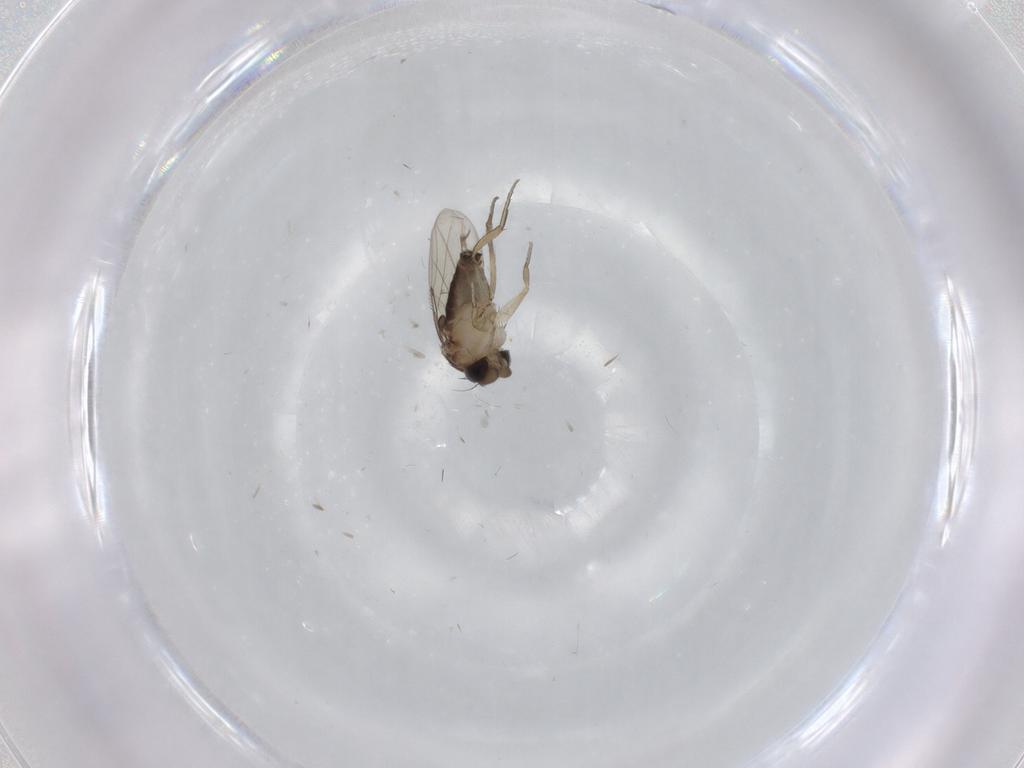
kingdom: Animalia
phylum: Arthropoda
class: Insecta
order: Diptera
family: Phoridae
